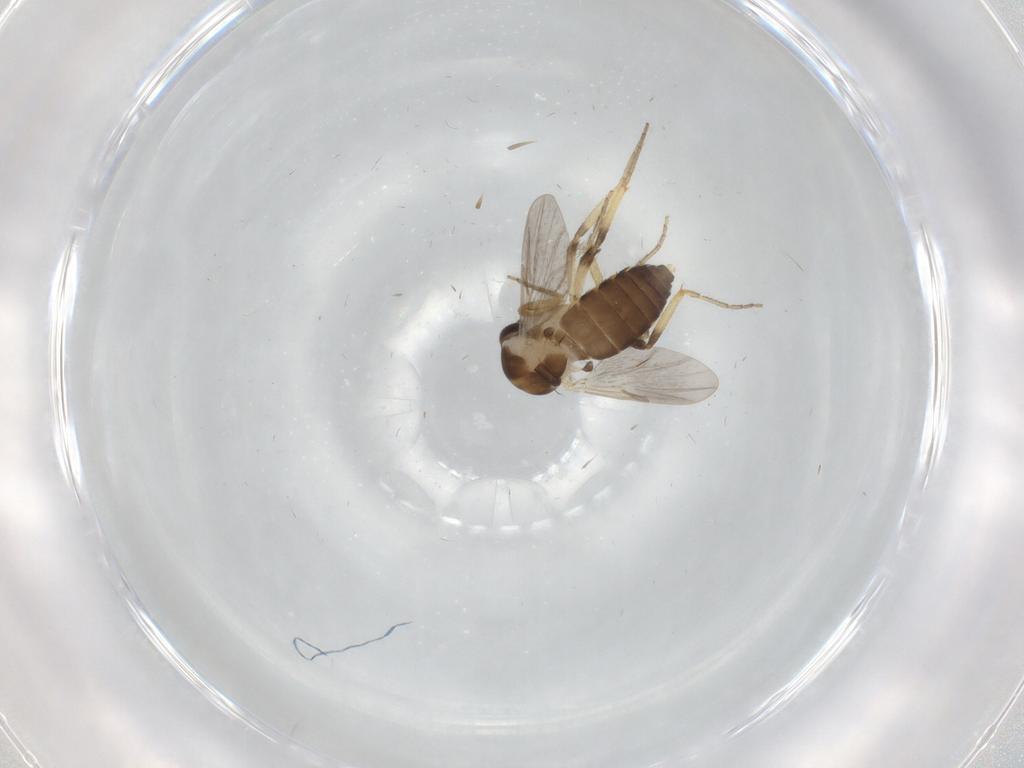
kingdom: Animalia
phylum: Arthropoda
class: Insecta
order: Diptera
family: Ceratopogonidae
